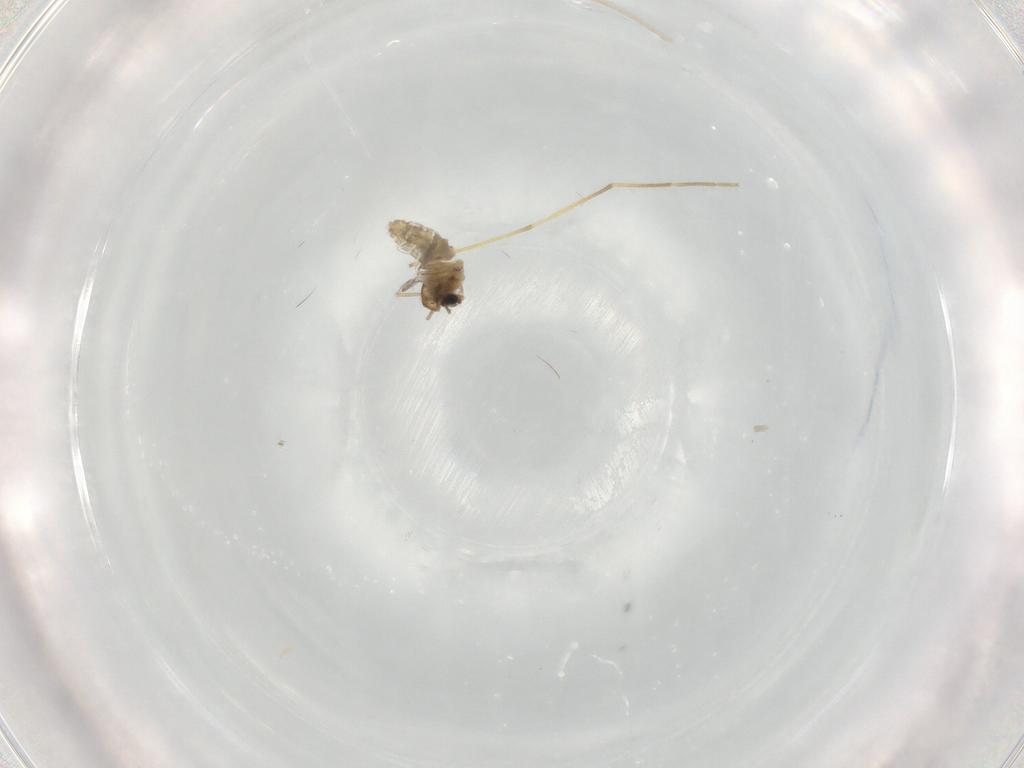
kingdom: Animalia
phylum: Arthropoda
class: Insecta
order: Diptera
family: Chironomidae
